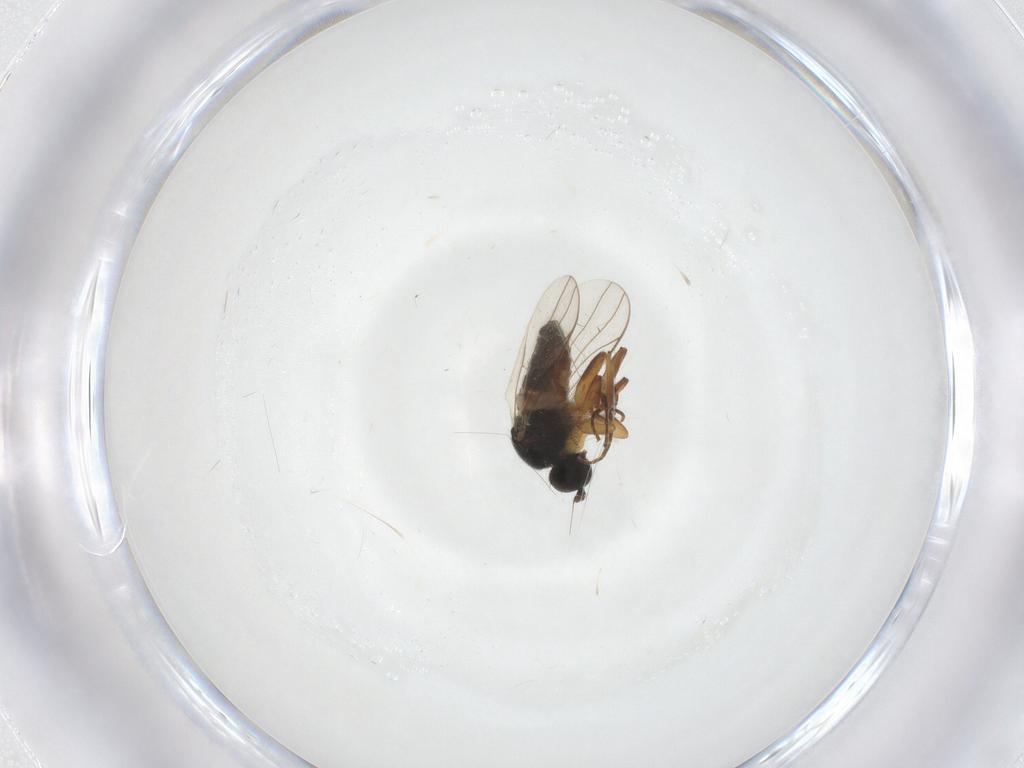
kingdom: Animalia
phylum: Arthropoda
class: Insecta
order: Diptera
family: Hybotidae
